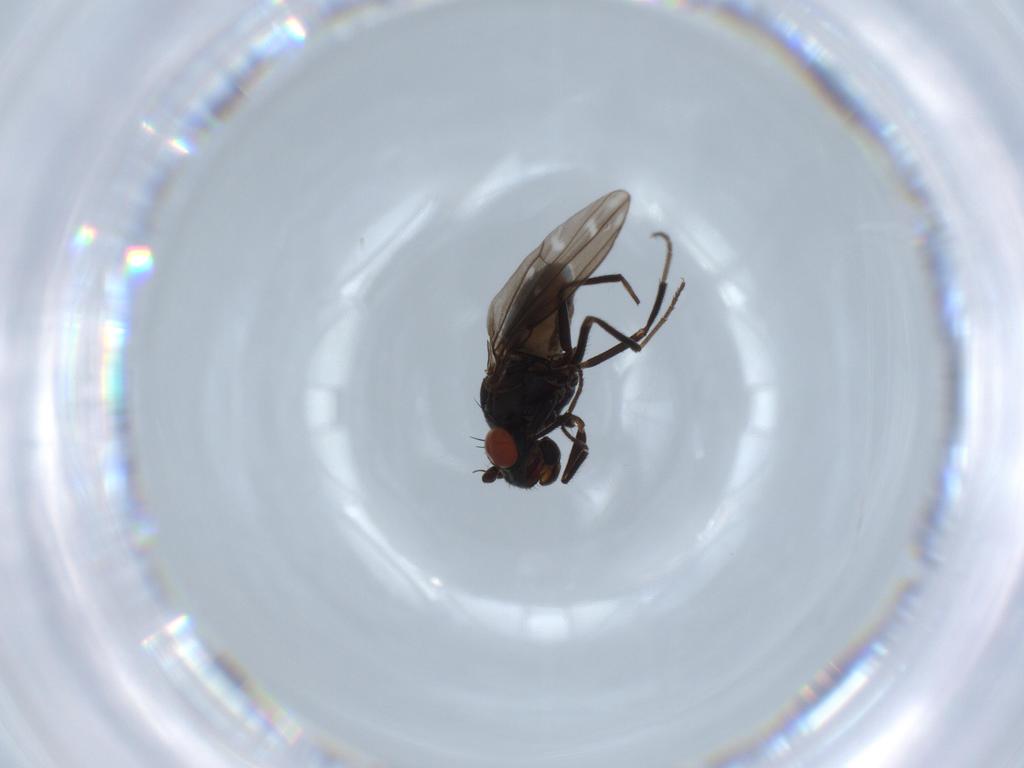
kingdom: Animalia
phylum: Arthropoda
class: Insecta
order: Diptera
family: Ephydridae
